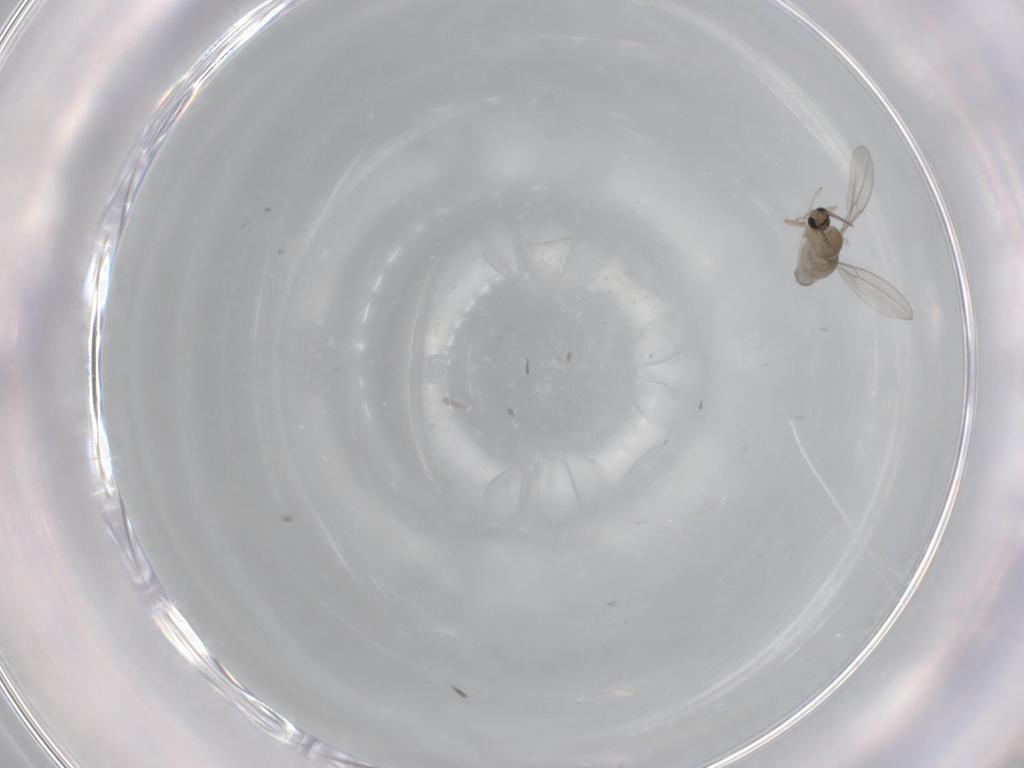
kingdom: Animalia
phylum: Arthropoda
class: Insecta
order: Diptera
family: Cecidomyiidae
